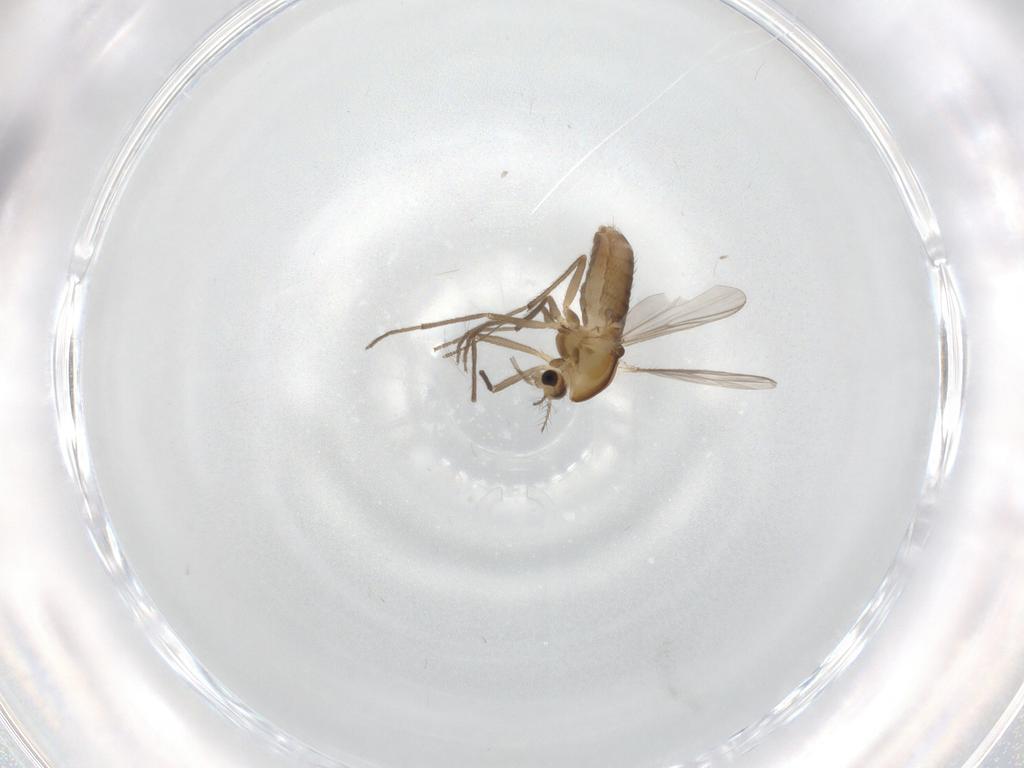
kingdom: Animalia
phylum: Arthropoda
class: Insecta
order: Diptera
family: Chironomidae
